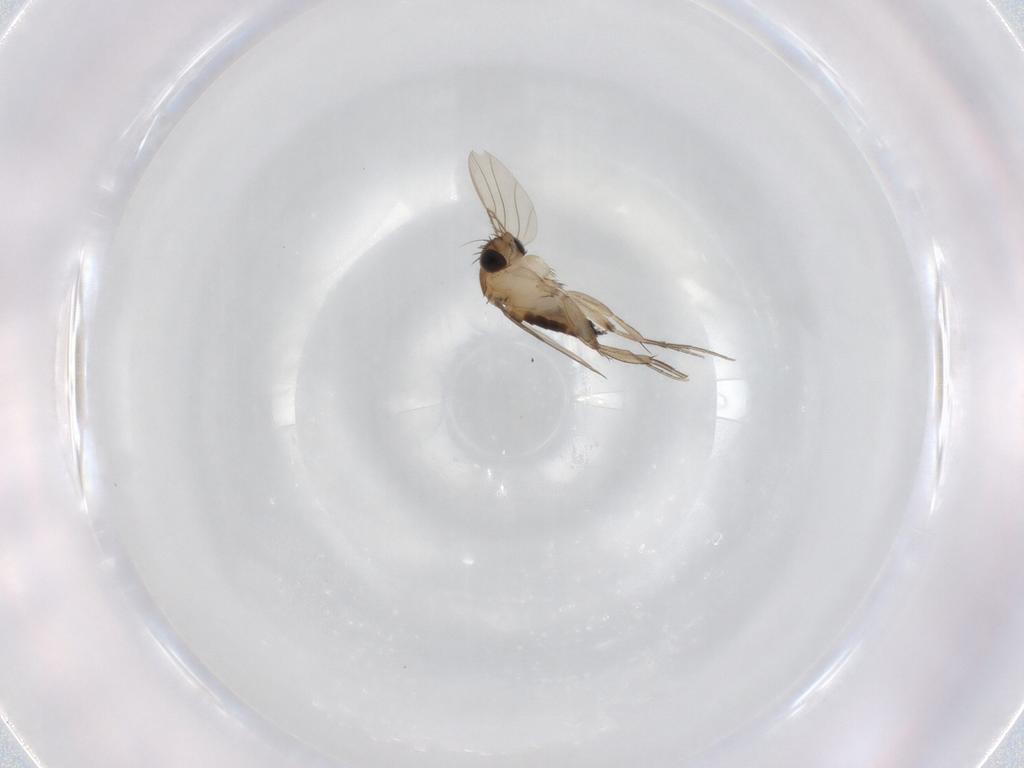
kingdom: Animalia
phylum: Arthropoda
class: Insecta
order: Diptera
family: Phoridae
